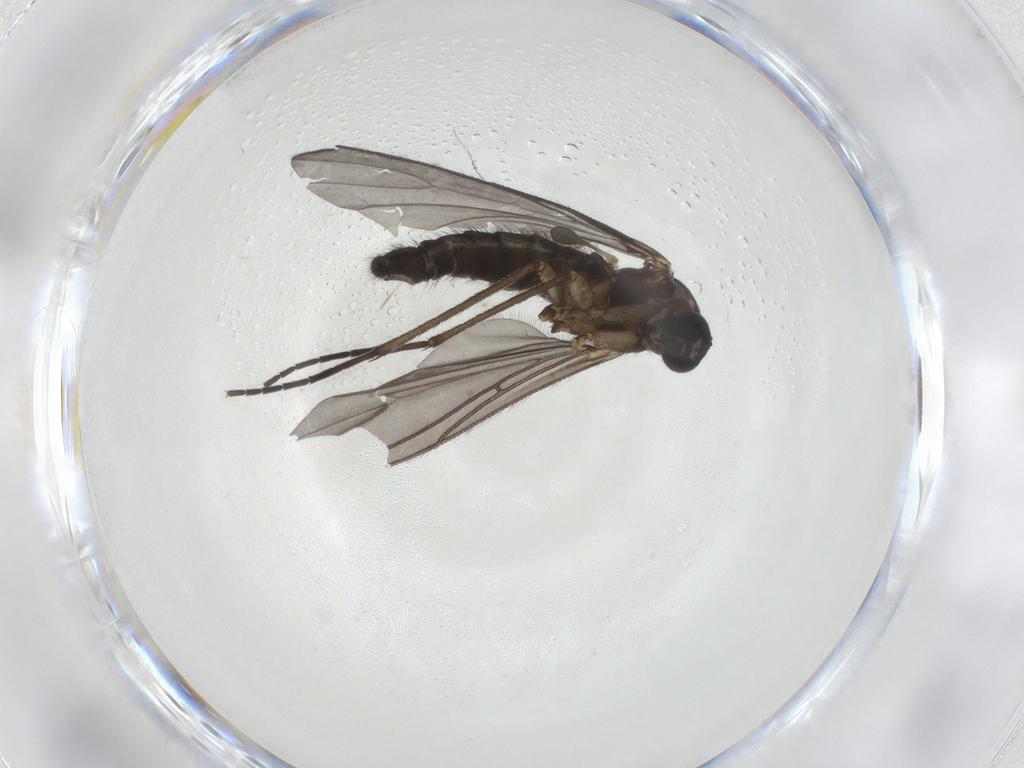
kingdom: Animalia
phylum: Arthropoda
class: Insecta
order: Diptera
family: Sciaridae
